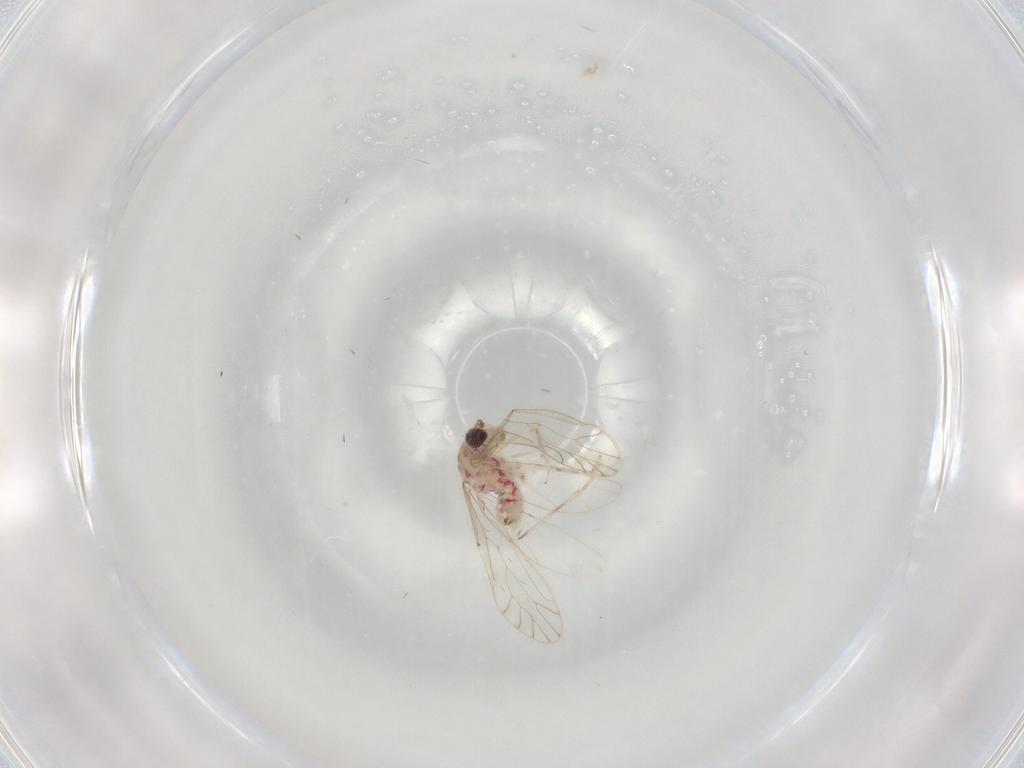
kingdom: Animalia
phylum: Arthropoda
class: Insecta
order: Psocodea
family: Caeciliusidae
